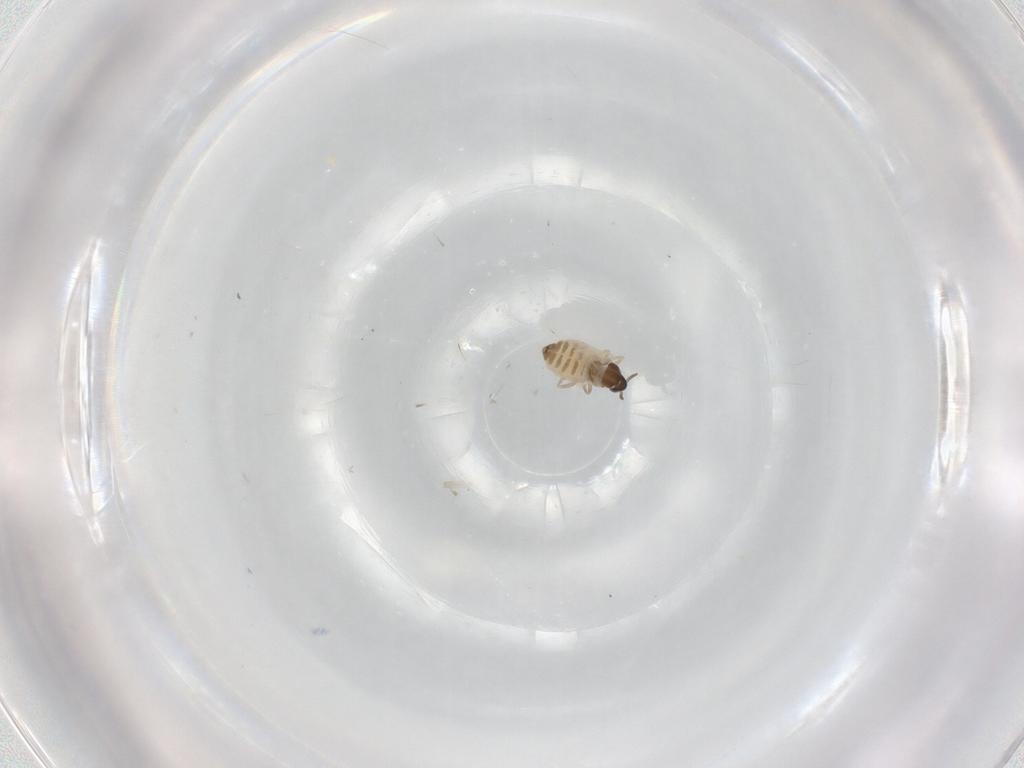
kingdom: Animalia
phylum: Arthropoda
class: Insecta
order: Diptera
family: Cecidomyiidae
